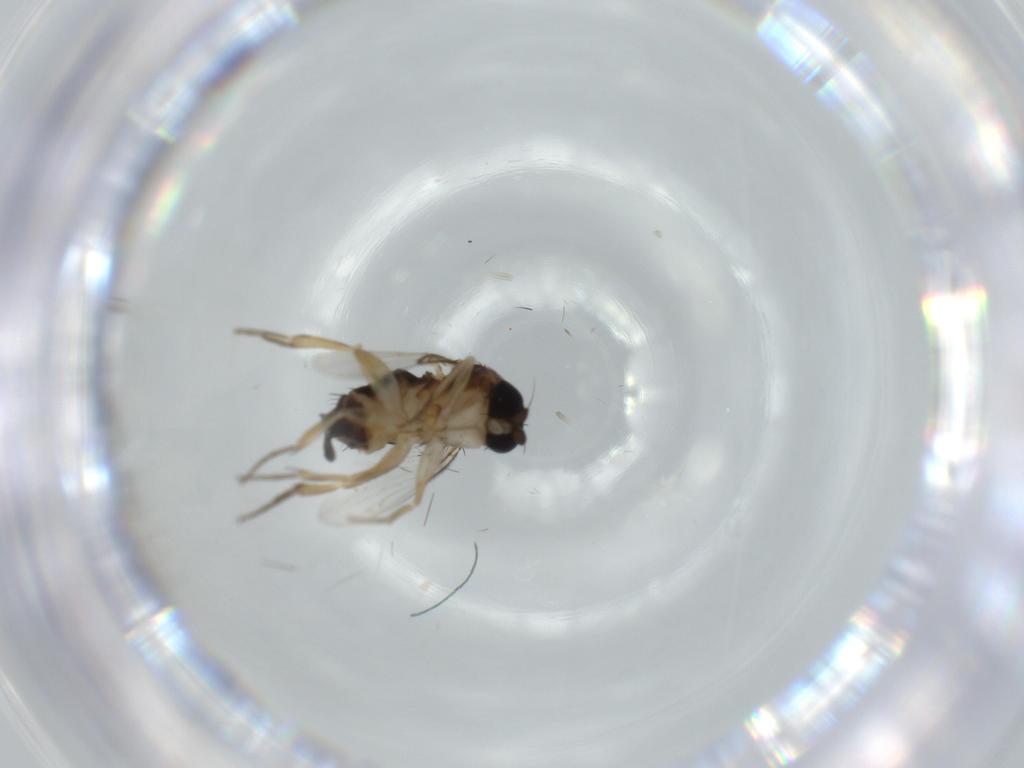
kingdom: Animalia
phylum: Arthropoda
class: Insecta
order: Diptera
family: Phoridae
